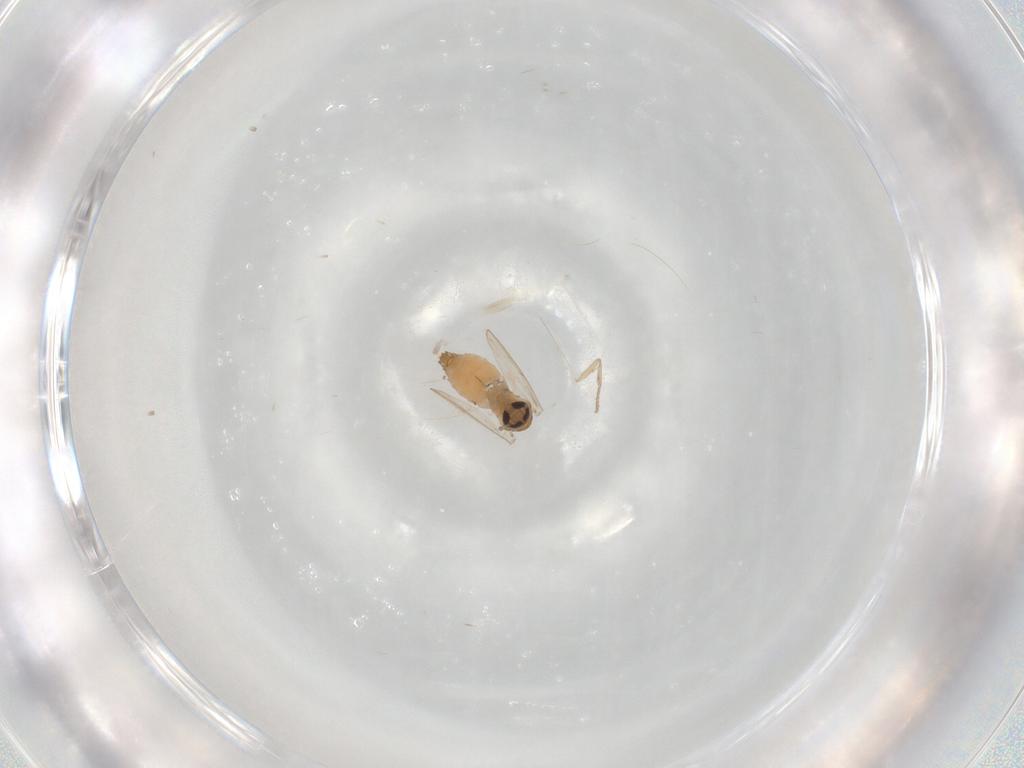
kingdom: Animalia
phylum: Arthropoda
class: Insecta
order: Diptera
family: Psychodidae
